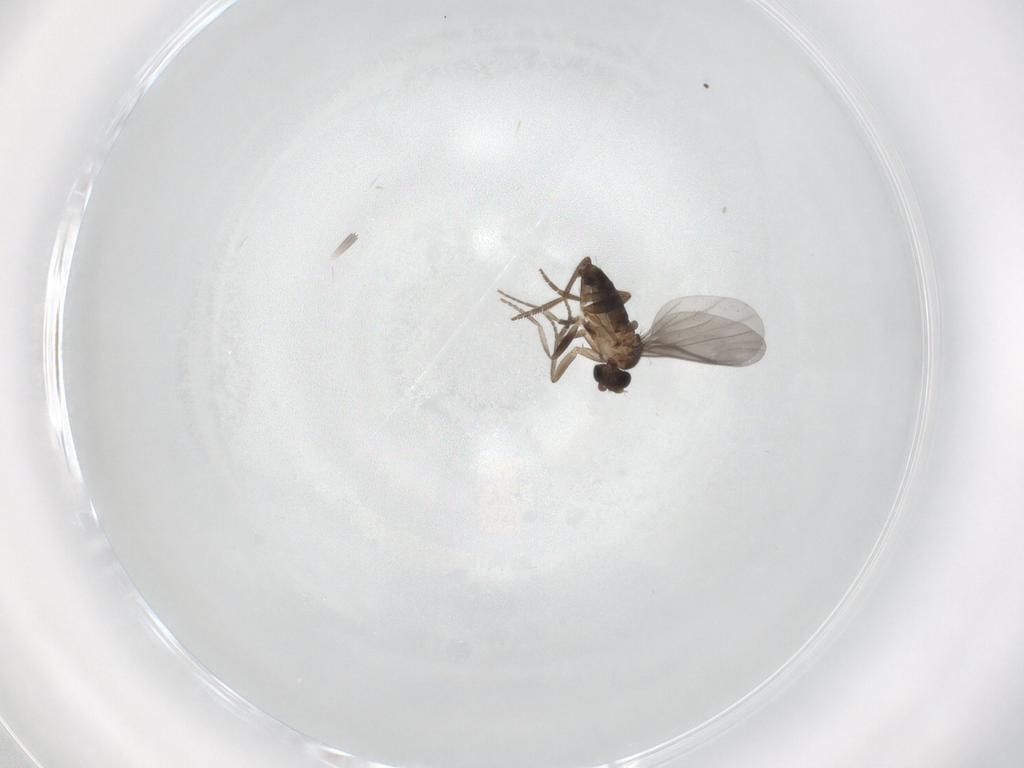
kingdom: Animalia
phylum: Arthropoda
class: Insecta
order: Diptera
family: Phoridae
